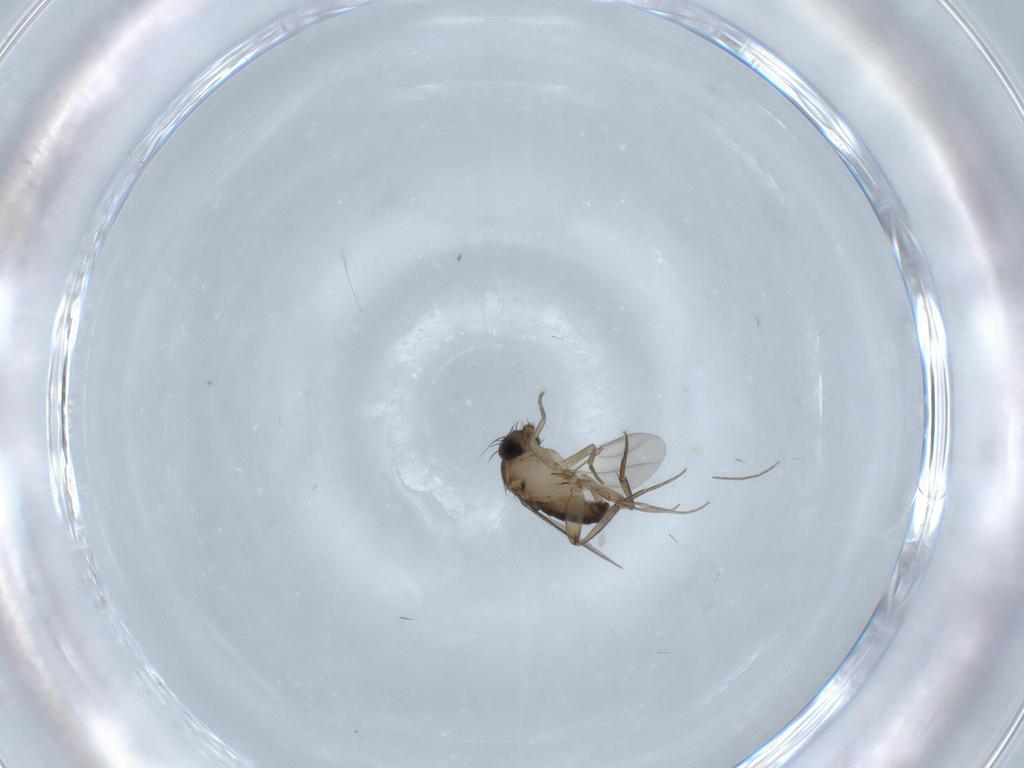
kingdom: Animalia
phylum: Arthropoda
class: Insecta
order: Diptera
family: Phoridae
